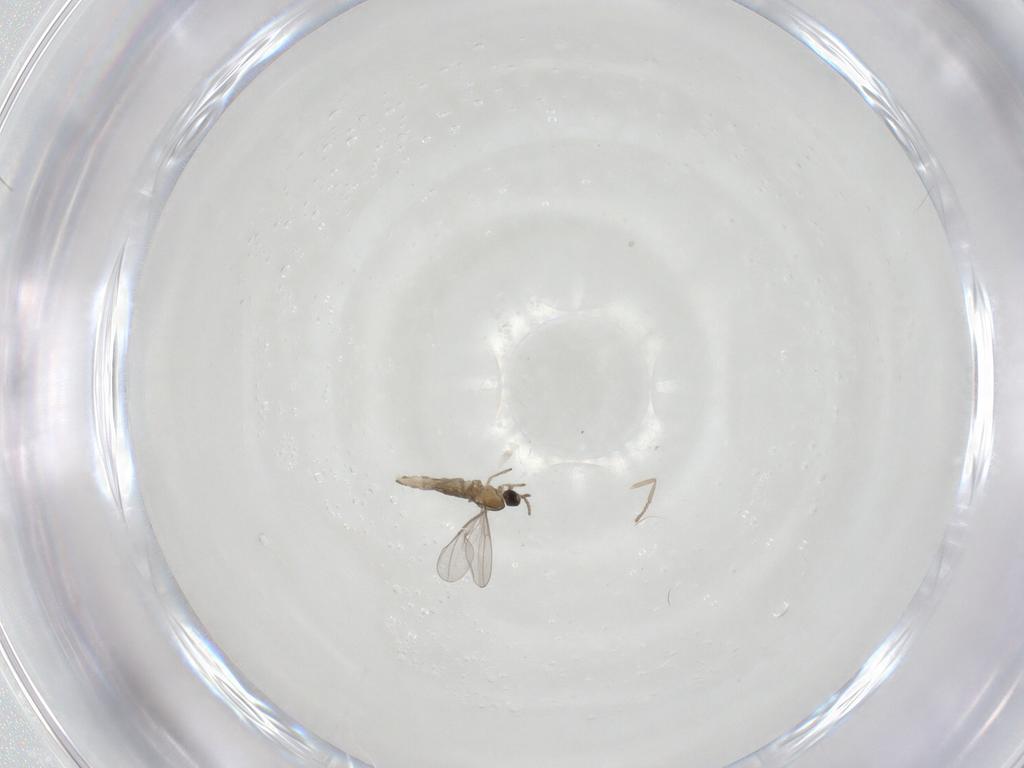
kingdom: Animalia
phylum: Arthropoda
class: Insecta
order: Diptera
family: Psychodidae
